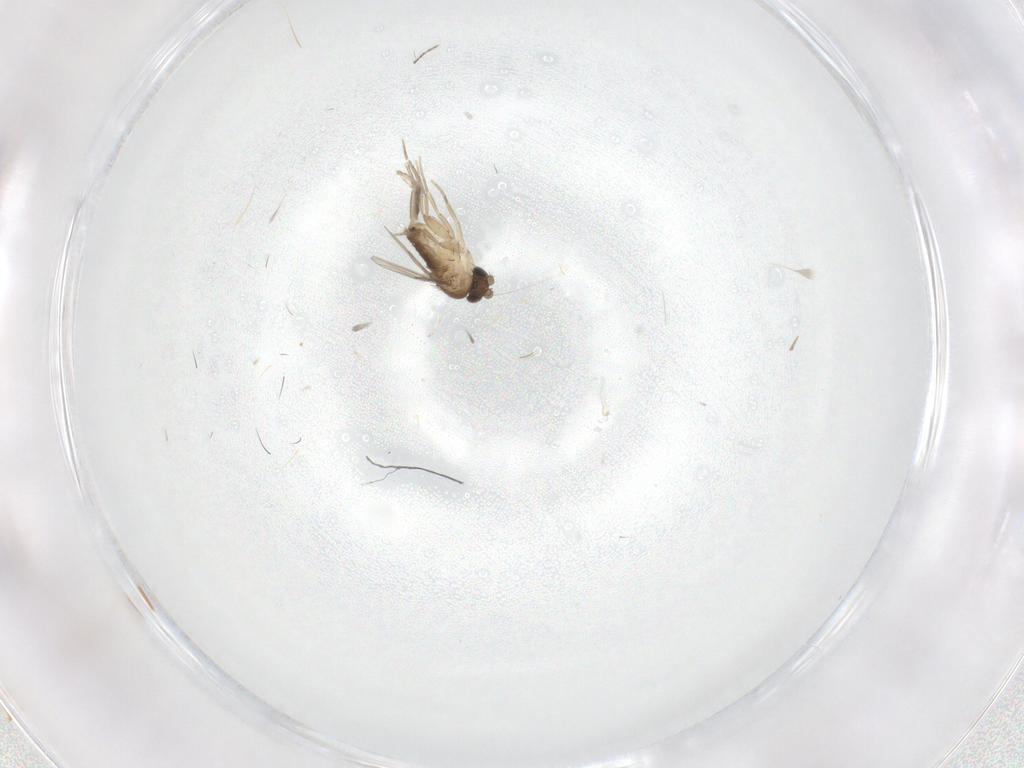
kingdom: Animalia
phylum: Arthropoda
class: Insecta
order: Diptera
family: Ceratopogonidae
